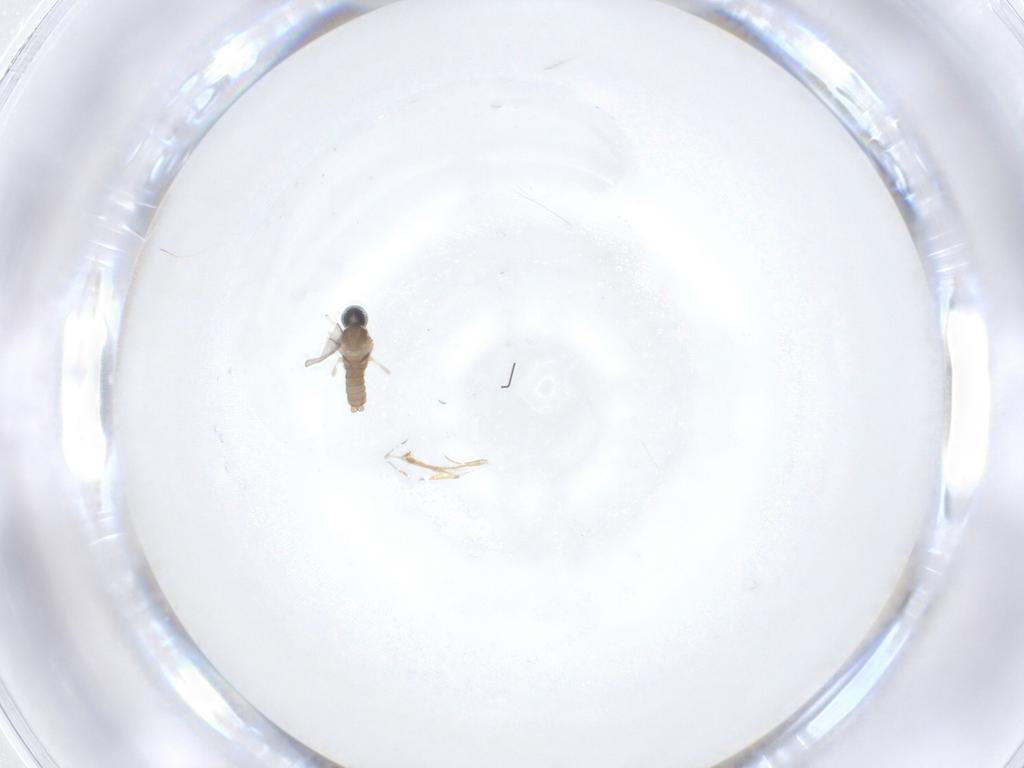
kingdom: Animalia
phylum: Arthropoda
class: Insecta
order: Diptera
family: Cecidomyiidae
